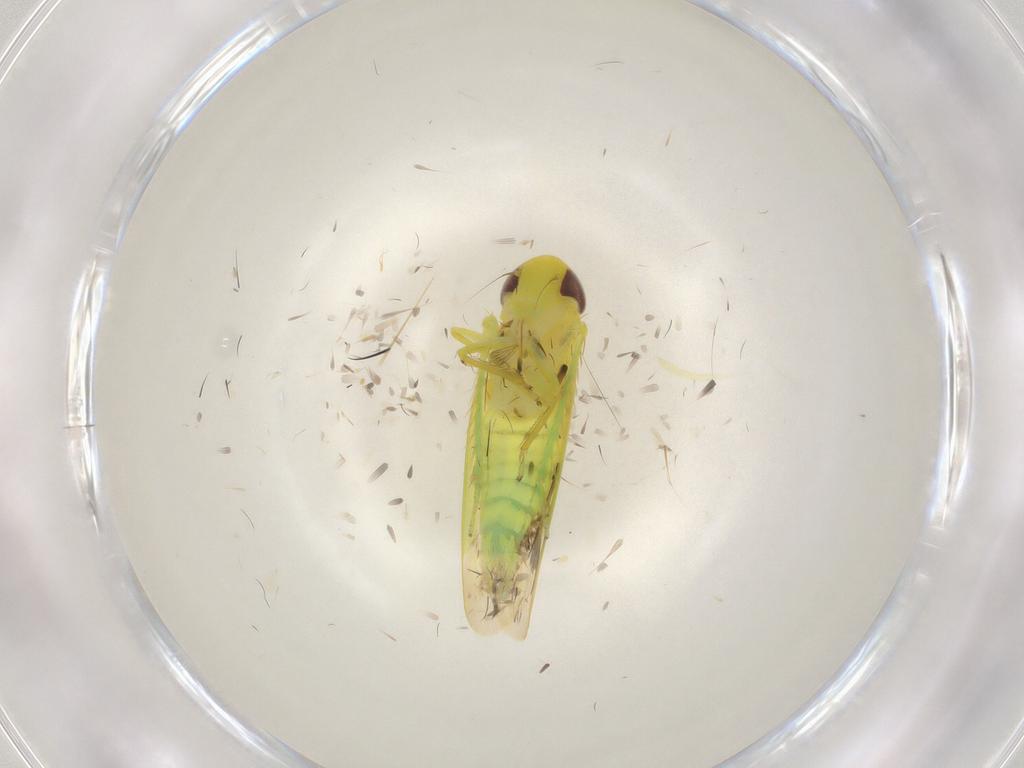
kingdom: Animalia
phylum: Arthropoda
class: Insecta
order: Hemiptera
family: Cicadellidae
